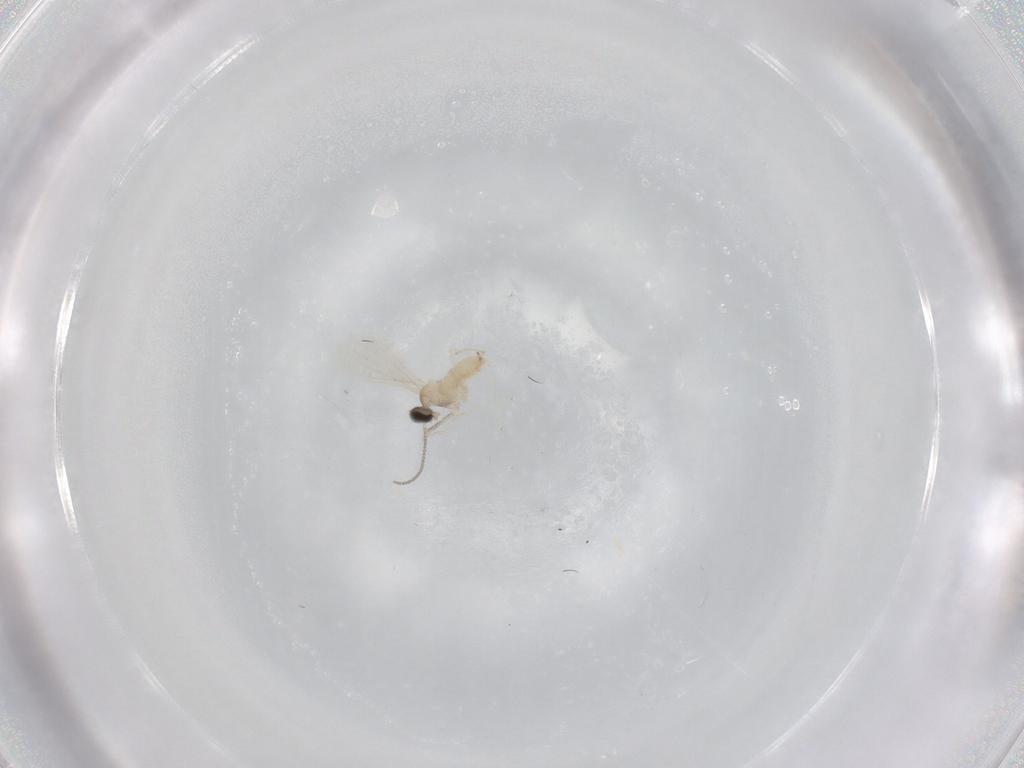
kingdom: Animalia
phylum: Arthropoda
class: Insecta
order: Diptera
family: Cecidomyiidae
